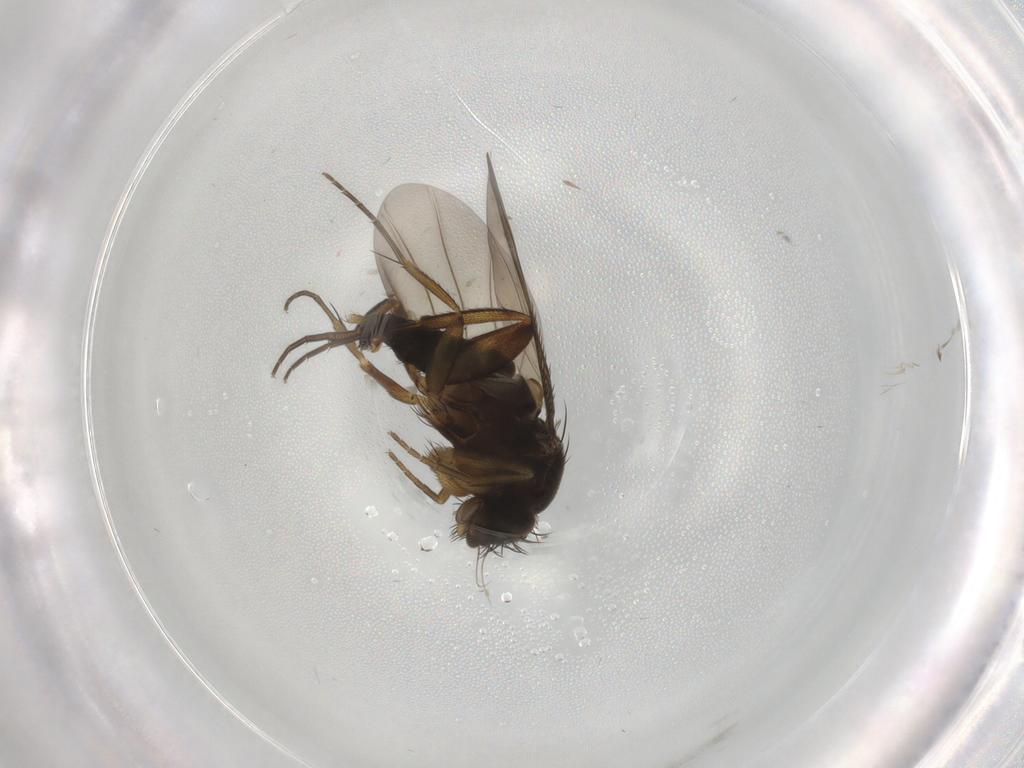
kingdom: Animalia
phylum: Arthropoda
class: Insecta
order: Diptera
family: Phoridae
